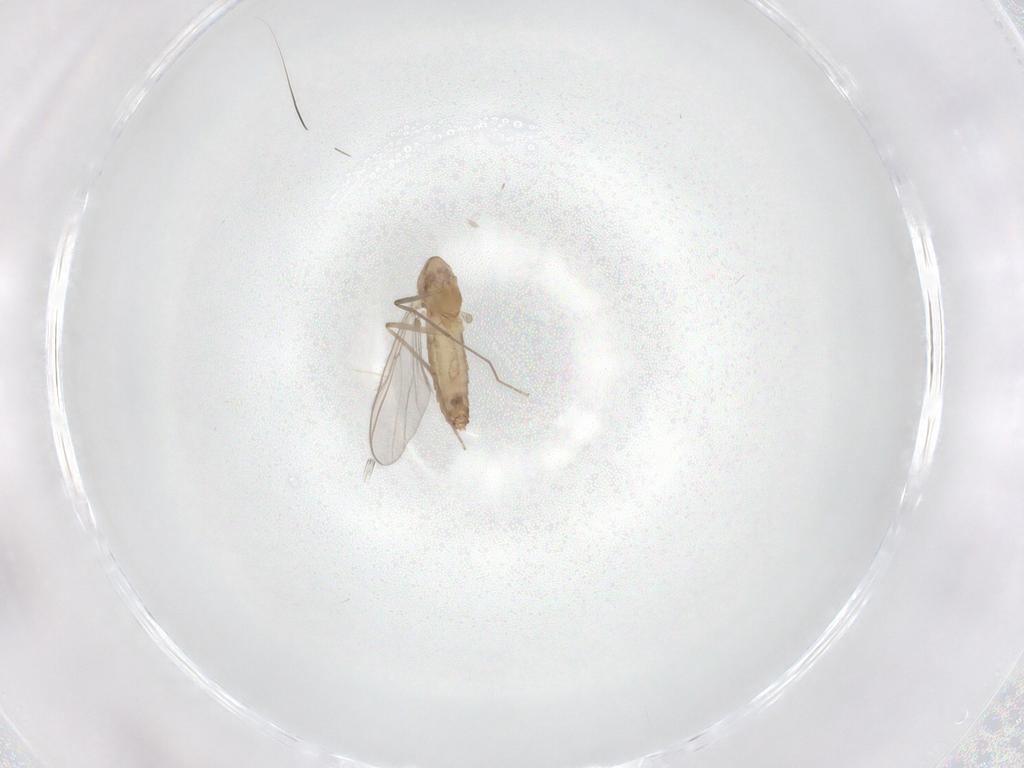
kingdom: Animalia
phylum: Arthropoda
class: Insecta
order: Diptera
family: Chironomidae
